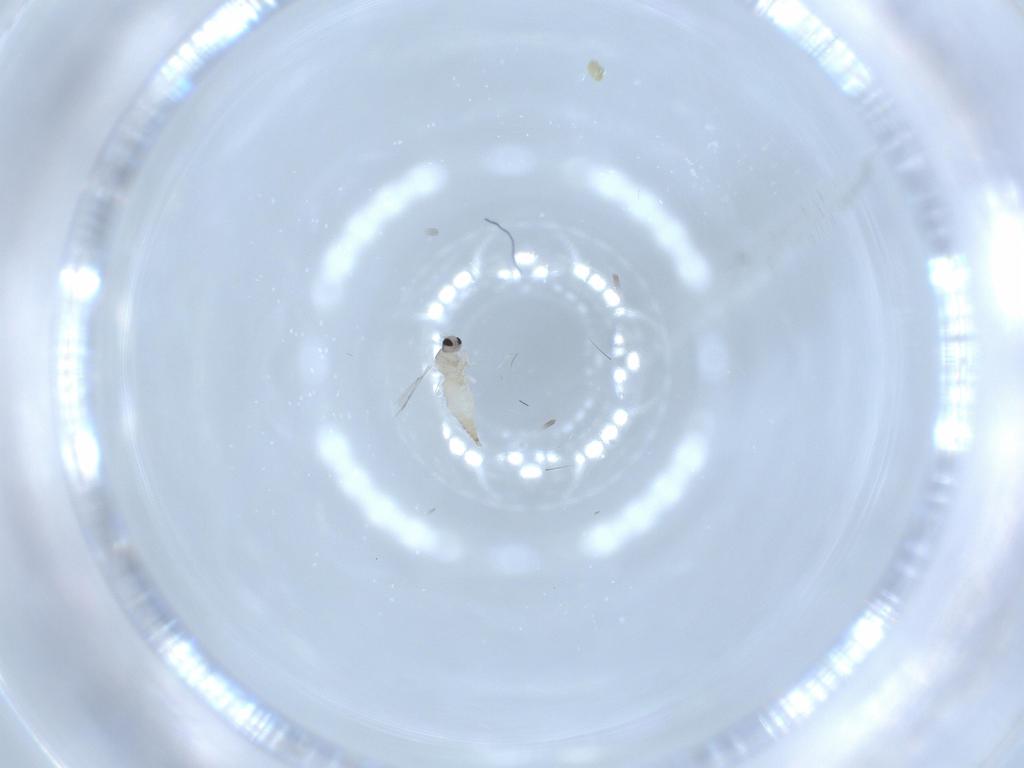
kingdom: Animalia
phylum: Arthropoda
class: Insecta
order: Diptera
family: Cecidomyiidae
